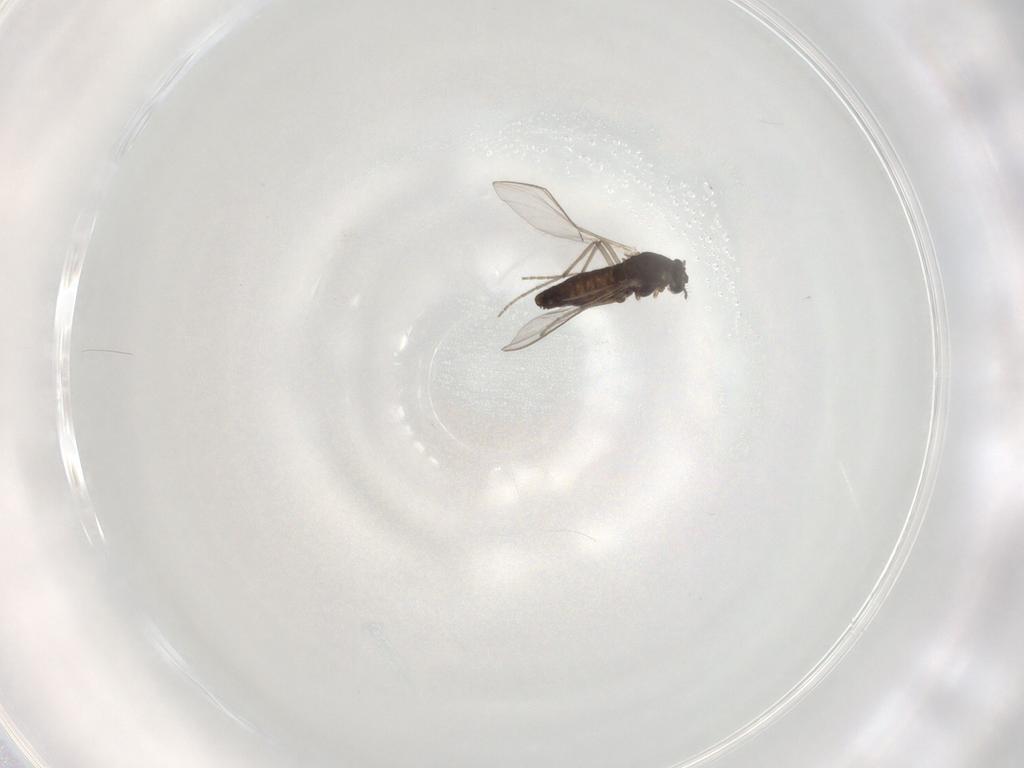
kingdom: Animalia
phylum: Arthropoda
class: Insecta
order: Diptera
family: Chironomidae
